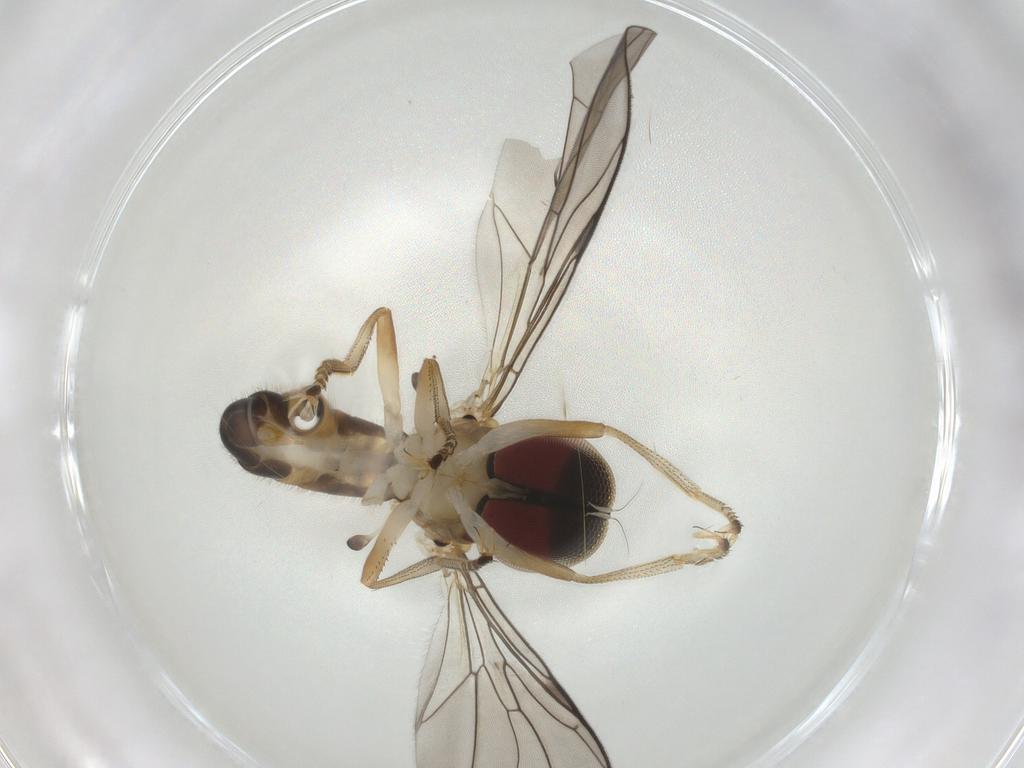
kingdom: Animalia
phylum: Arthropoda
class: Insecta
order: Diptera
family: Hybotidae
